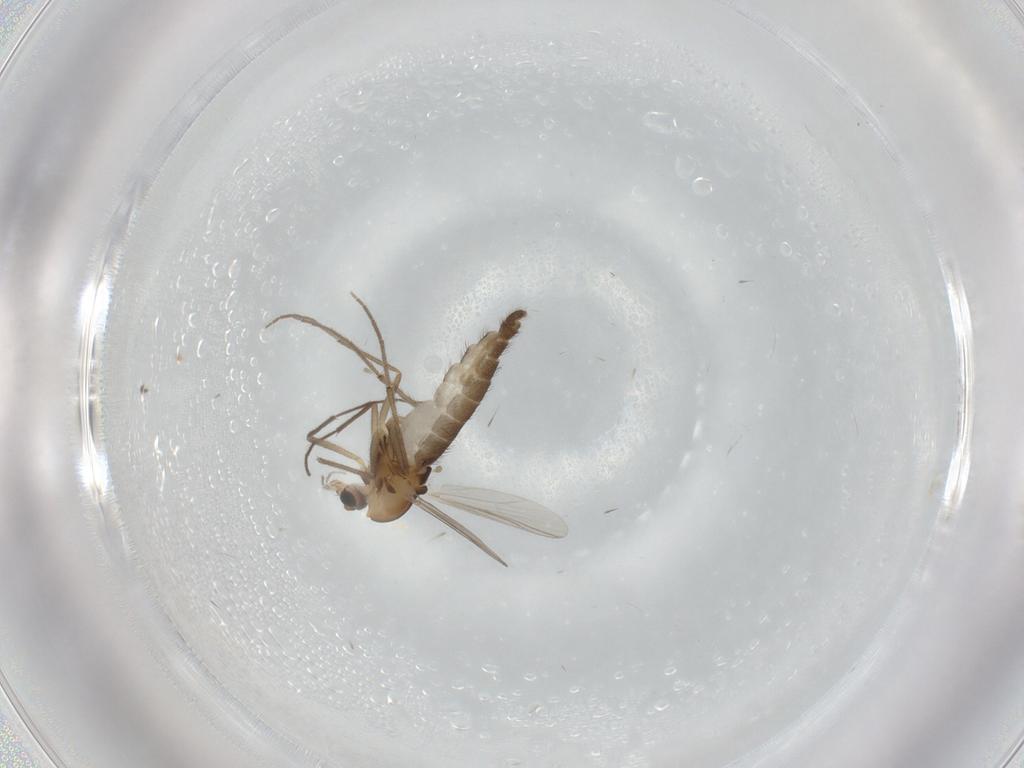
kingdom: Animalia
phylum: Arthropoda
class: Insecta
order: Diptera
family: Chironomidae
